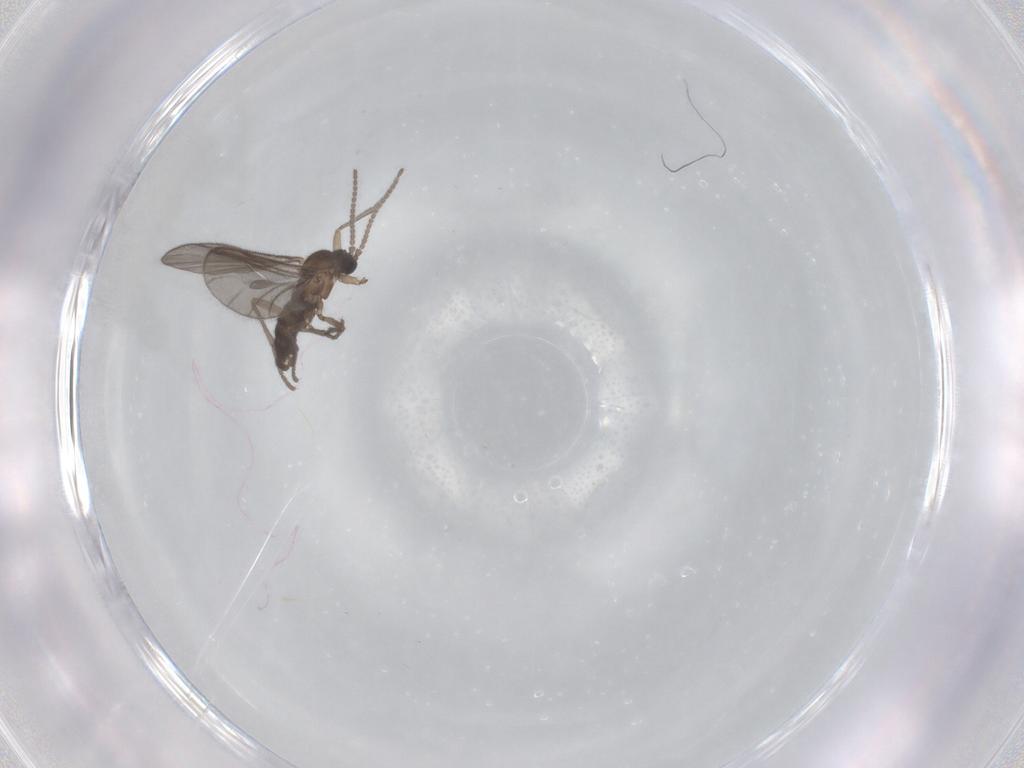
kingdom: Animalia
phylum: Arthropoda
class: Insecta
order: Diptera
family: Sciaridae
